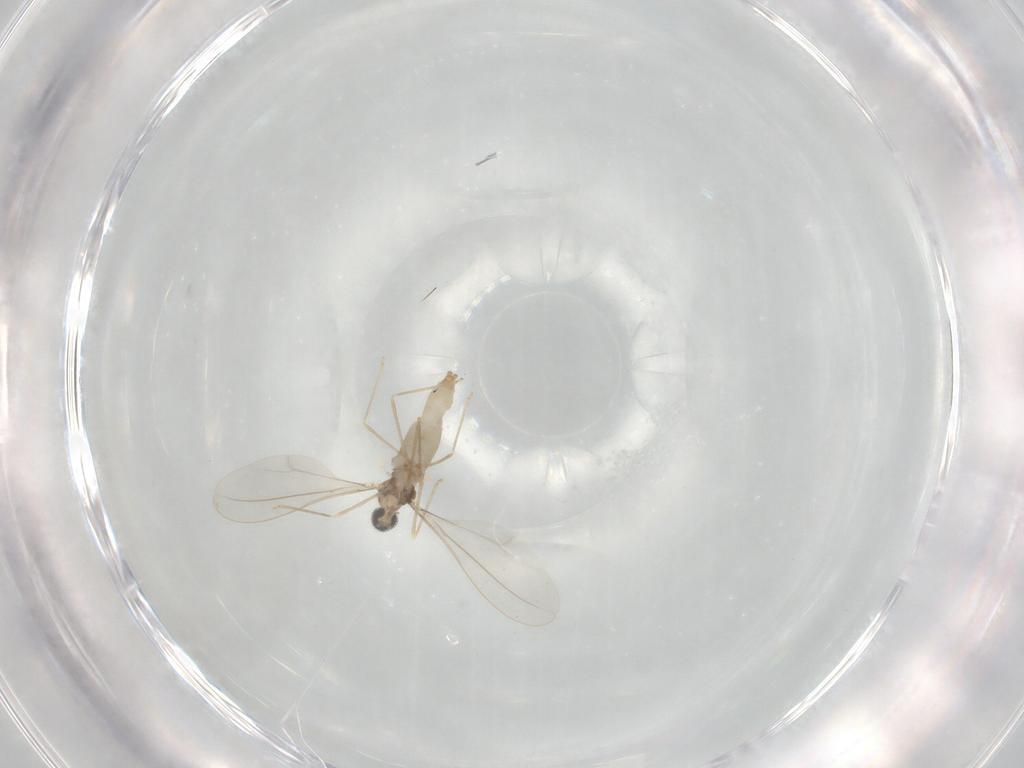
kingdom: Animalia
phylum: Arthropoda
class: Insecta
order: Diptera
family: Cecidomyiidae
